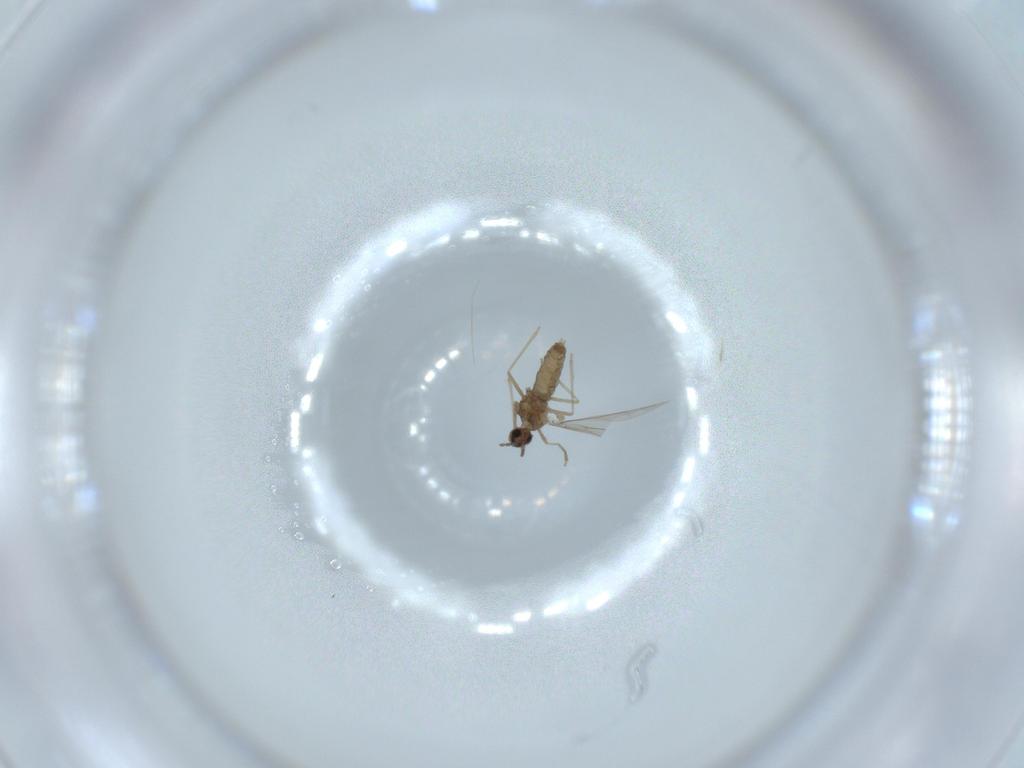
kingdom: Animalia
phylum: Arthropoda
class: Insecta
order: Diptera
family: Cecidomyiidae
